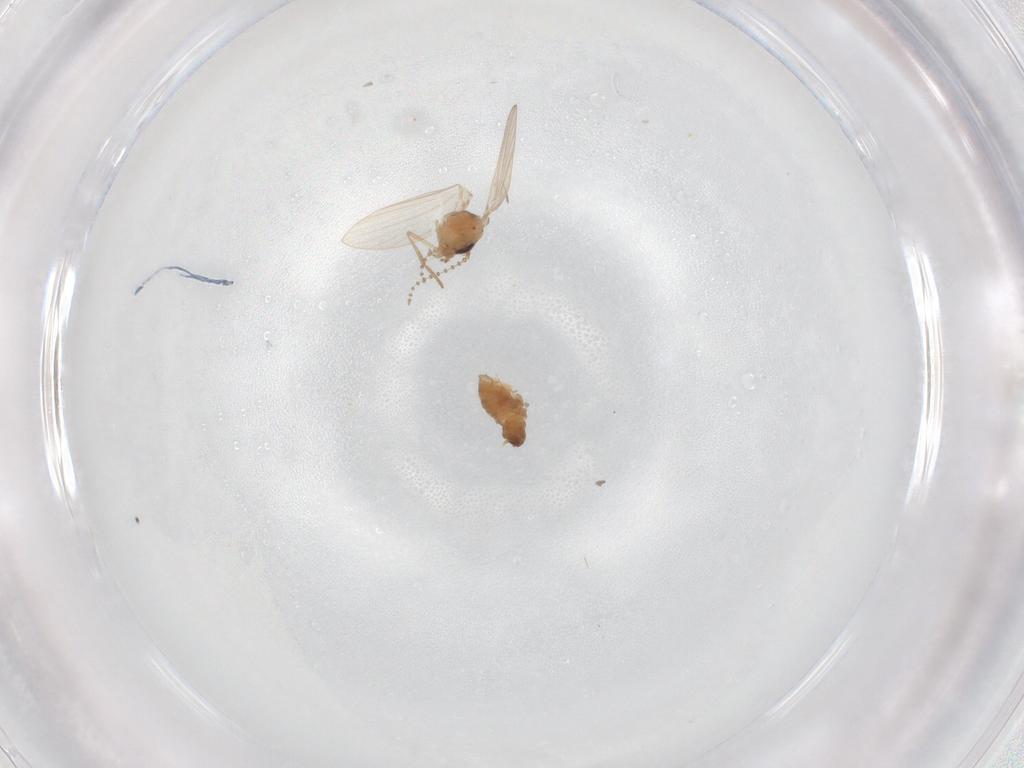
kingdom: Animalia
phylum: Arthropoda
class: Insecta
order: Diptera
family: Psychodidae
